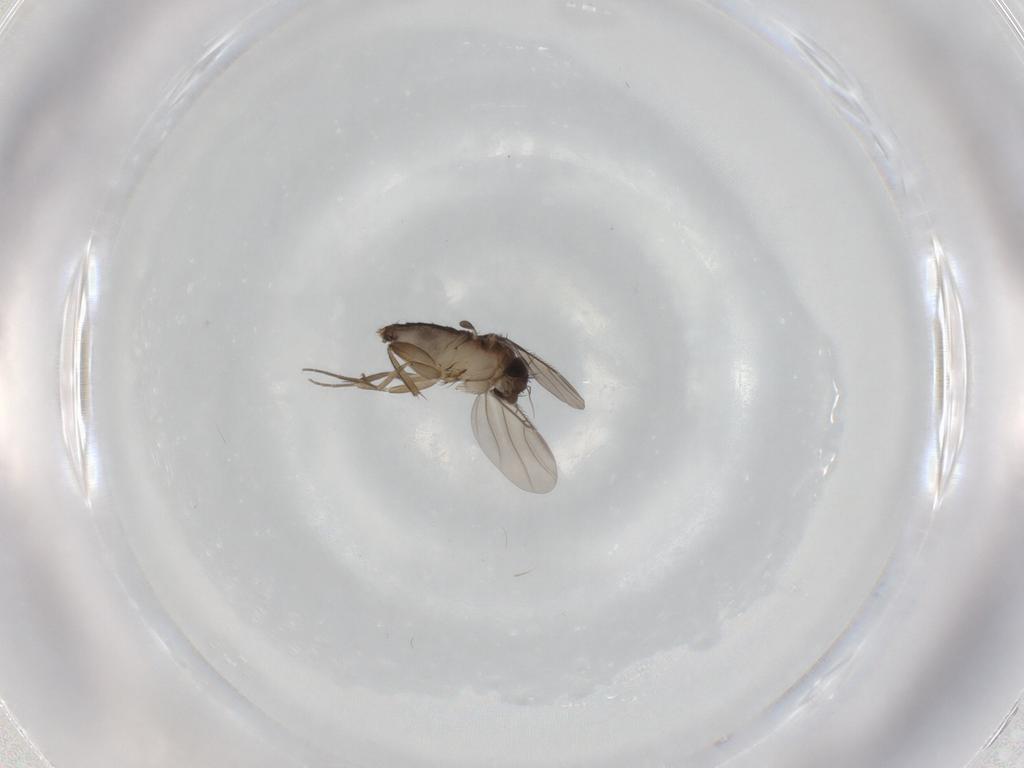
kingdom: Animalia
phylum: Arthropoda
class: Insecta
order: Diptera
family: Phoridae
